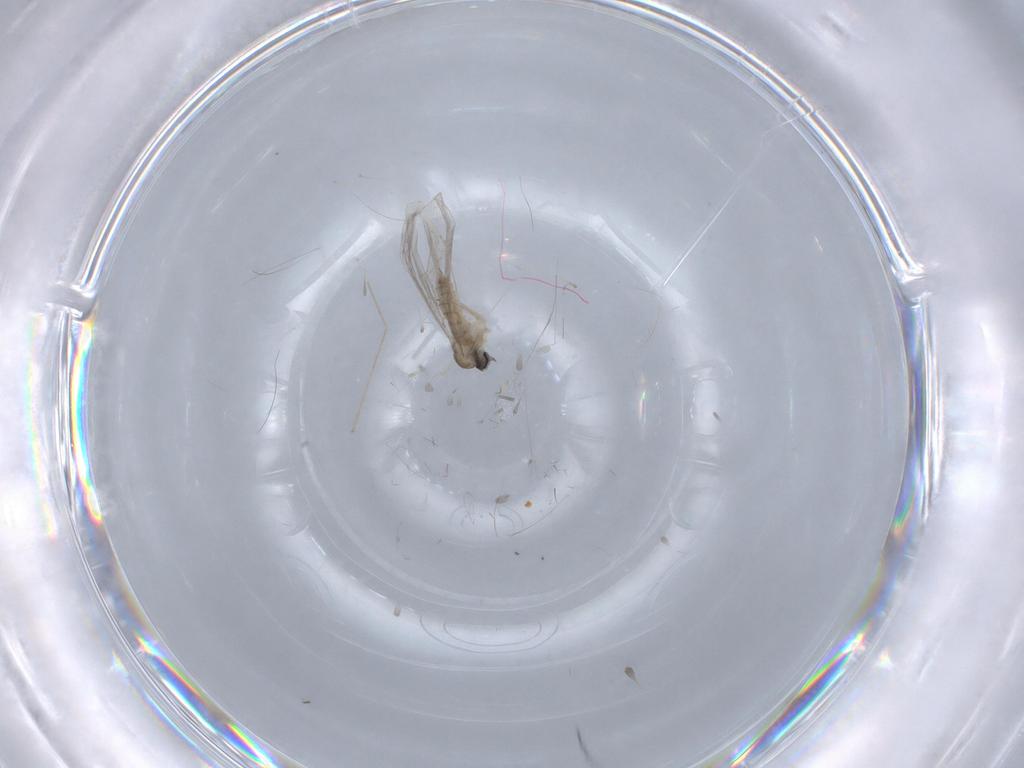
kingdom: Animalia
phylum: Arthropoda
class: Insecta
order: Diptera
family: Cecidomyiidae
